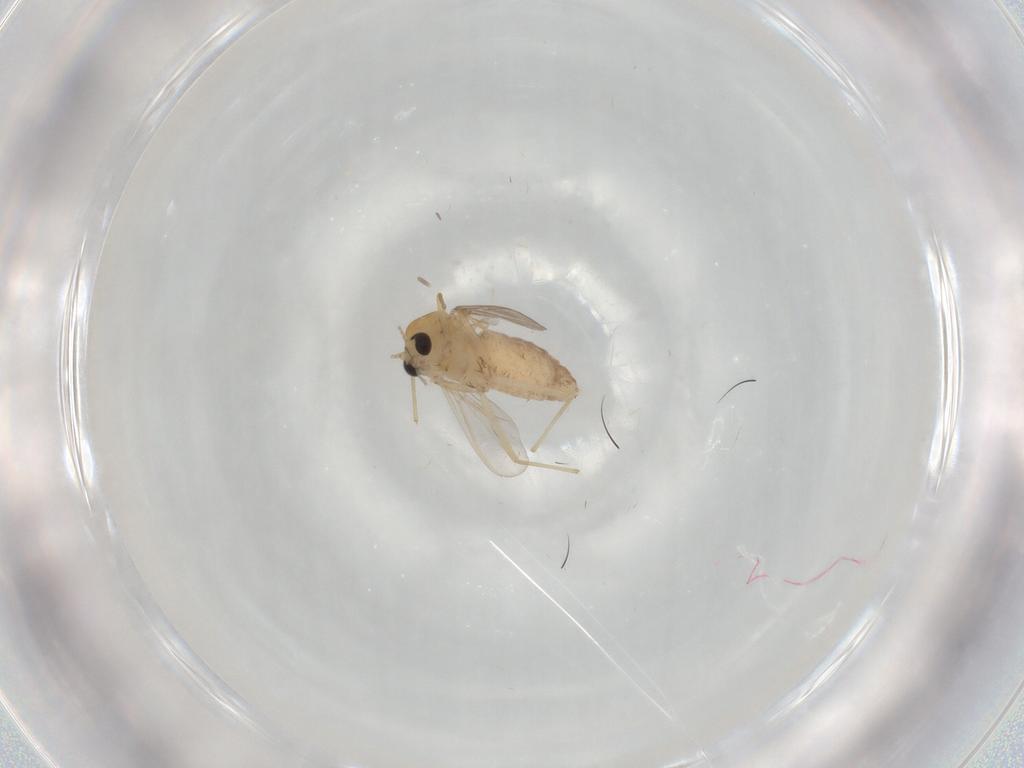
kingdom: Animalia
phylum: Arthropoda
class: Insecta
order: Diptera
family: Chironomidae
